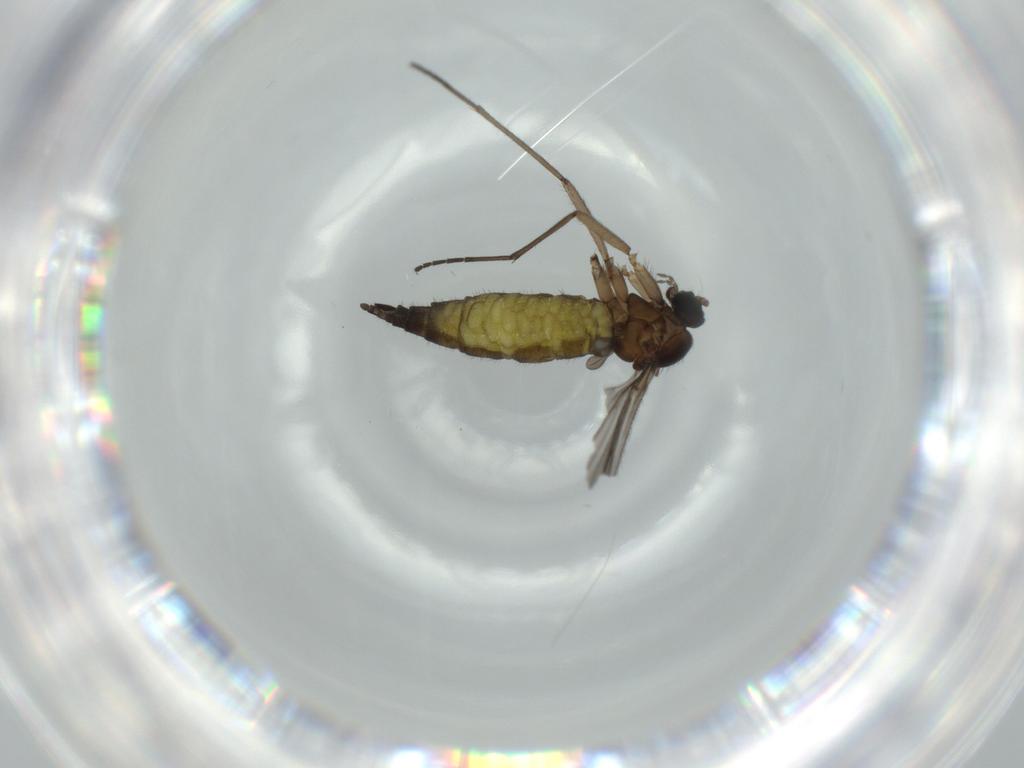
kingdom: Animalia
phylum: Arthropoda
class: Insecta
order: Diptera
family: Sciaridae
